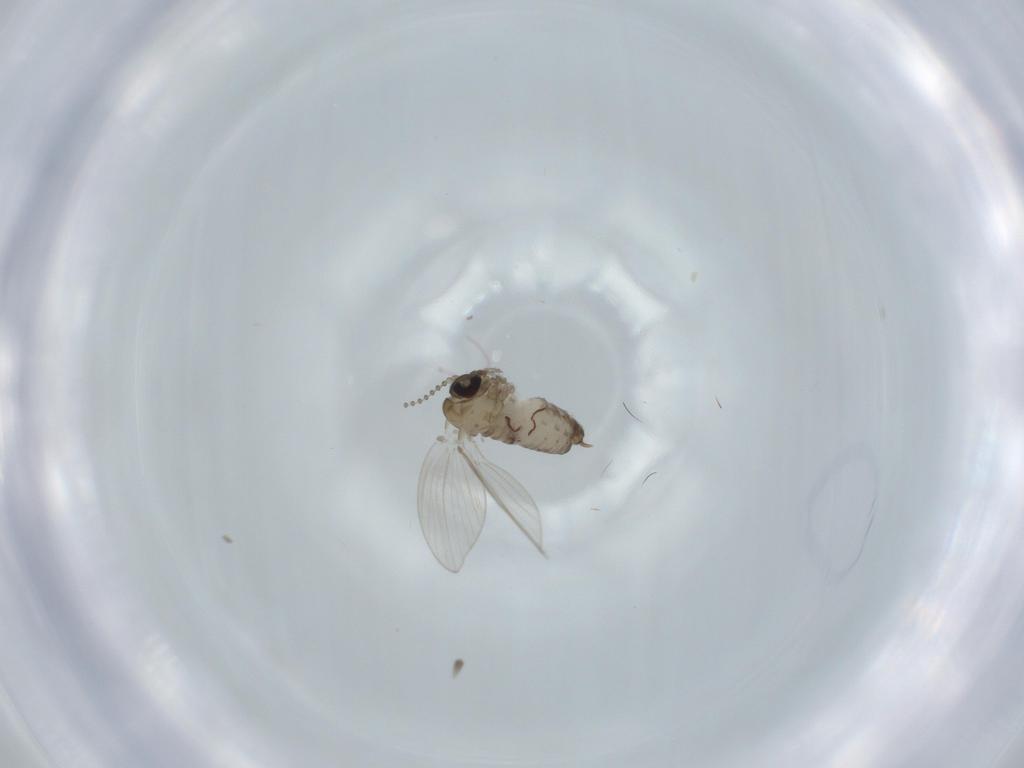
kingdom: Animalia
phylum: Arthropoda
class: Insecta
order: Diptera
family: Psychodidae
